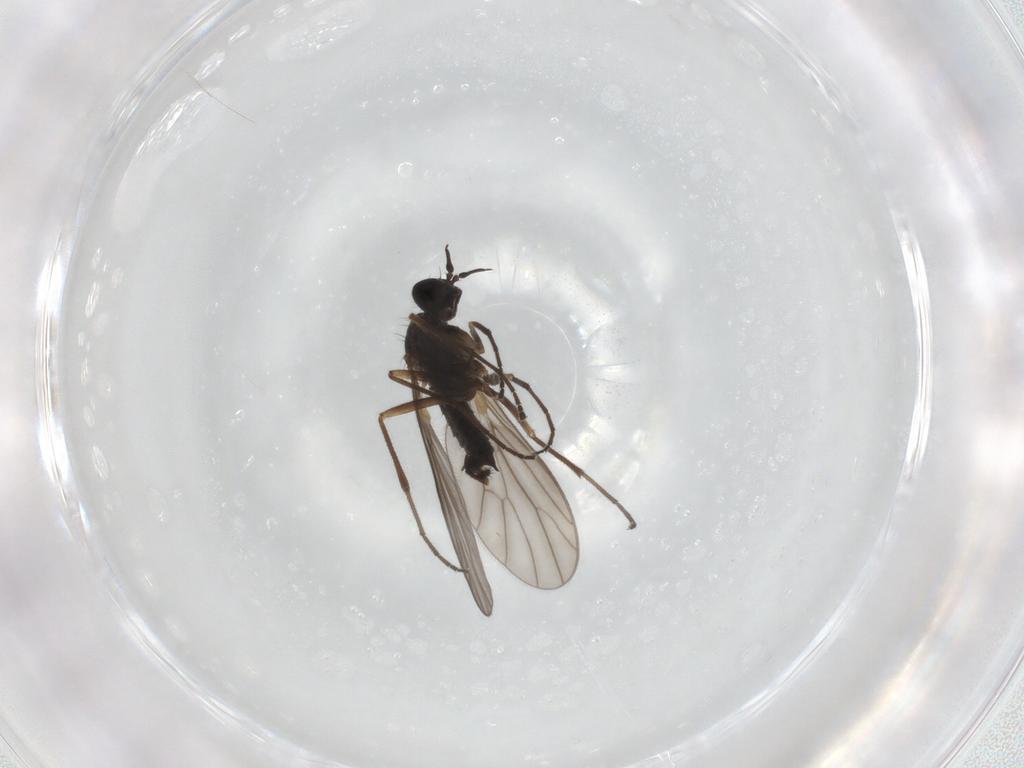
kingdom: Animalia
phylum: Arthropoda
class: Insecta
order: Diptera
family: Empididae
